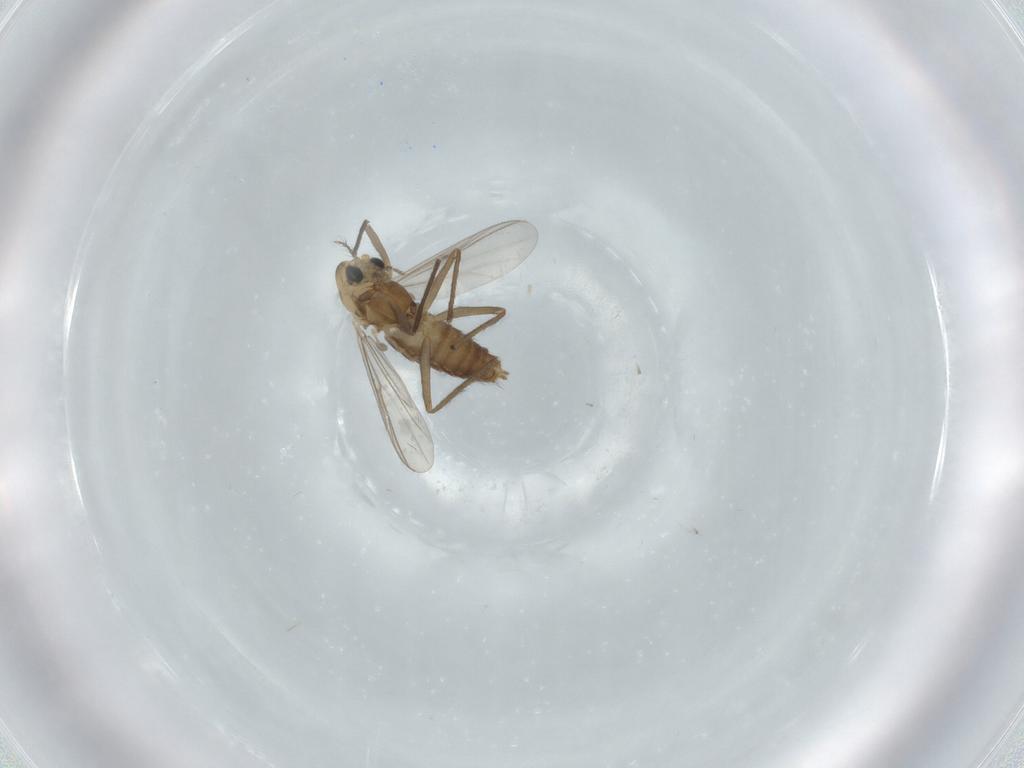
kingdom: Animalia
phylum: Arthropoda
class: Insecta
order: Diptera
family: Chironomidae
